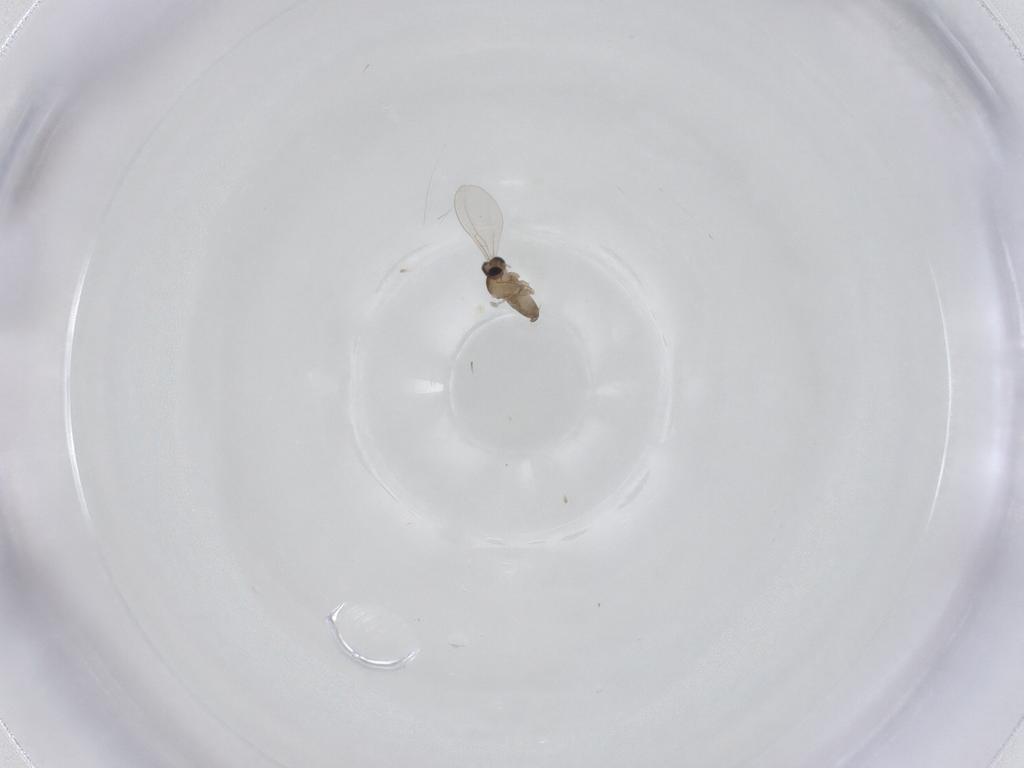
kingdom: Animalia
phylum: Arthropoda
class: Insecta
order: Diptera
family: Cecidomyiidae
